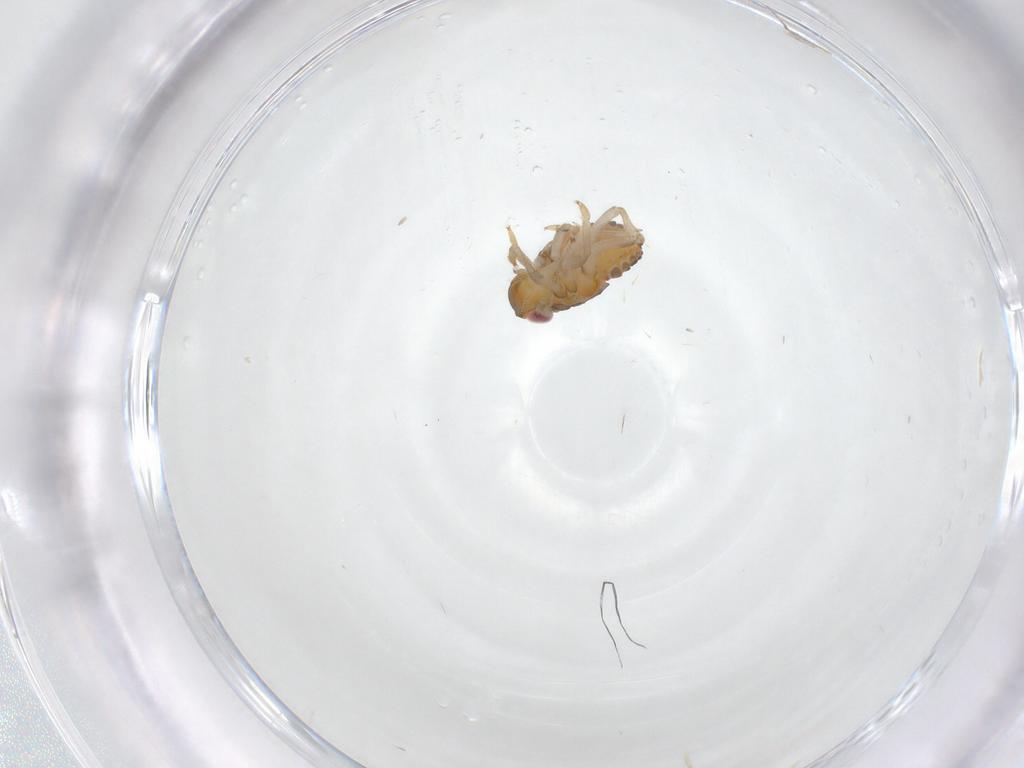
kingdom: Animalia
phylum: Arthropoda
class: Insecta
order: Hemiptera
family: Issidae
